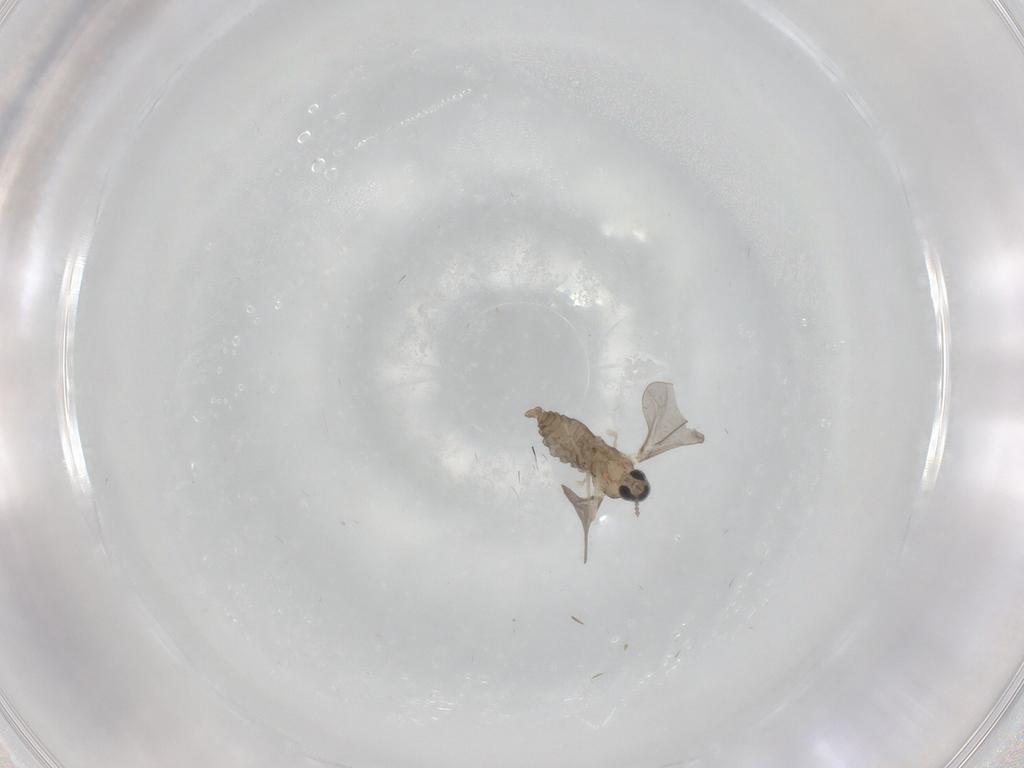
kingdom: Animalia
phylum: Arthropoda
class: Insecta
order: Diptera
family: Cecidomyiidae
